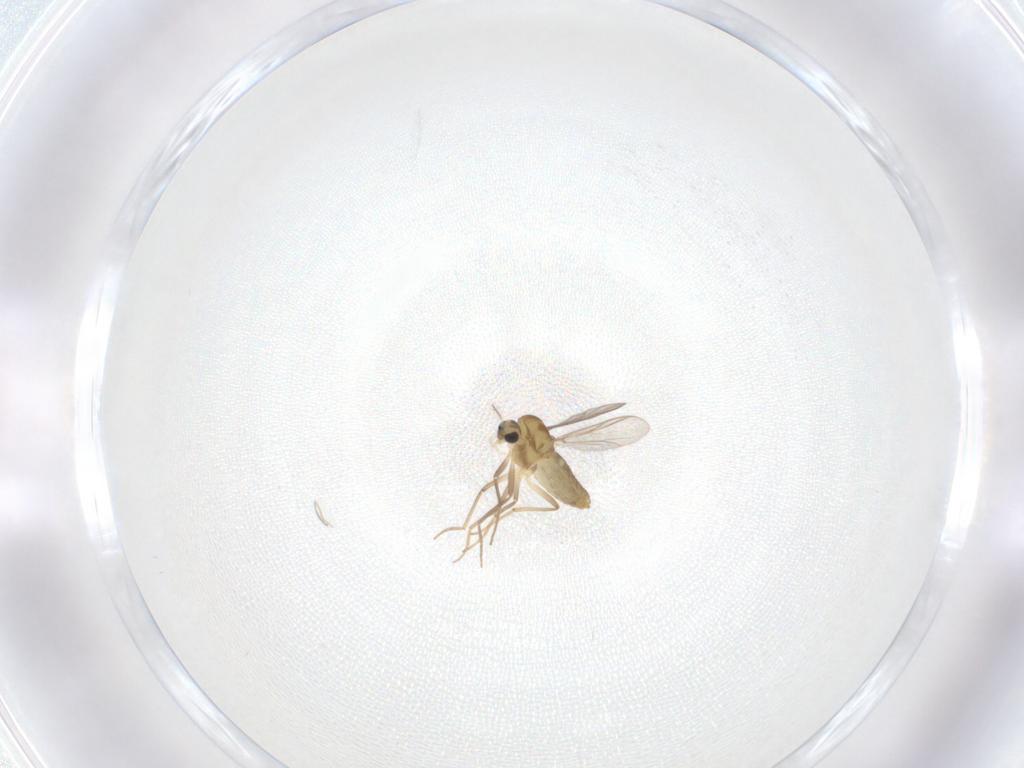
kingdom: Animalia
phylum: Arthropoda
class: Insecta
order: Diptera
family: Chironomidae
